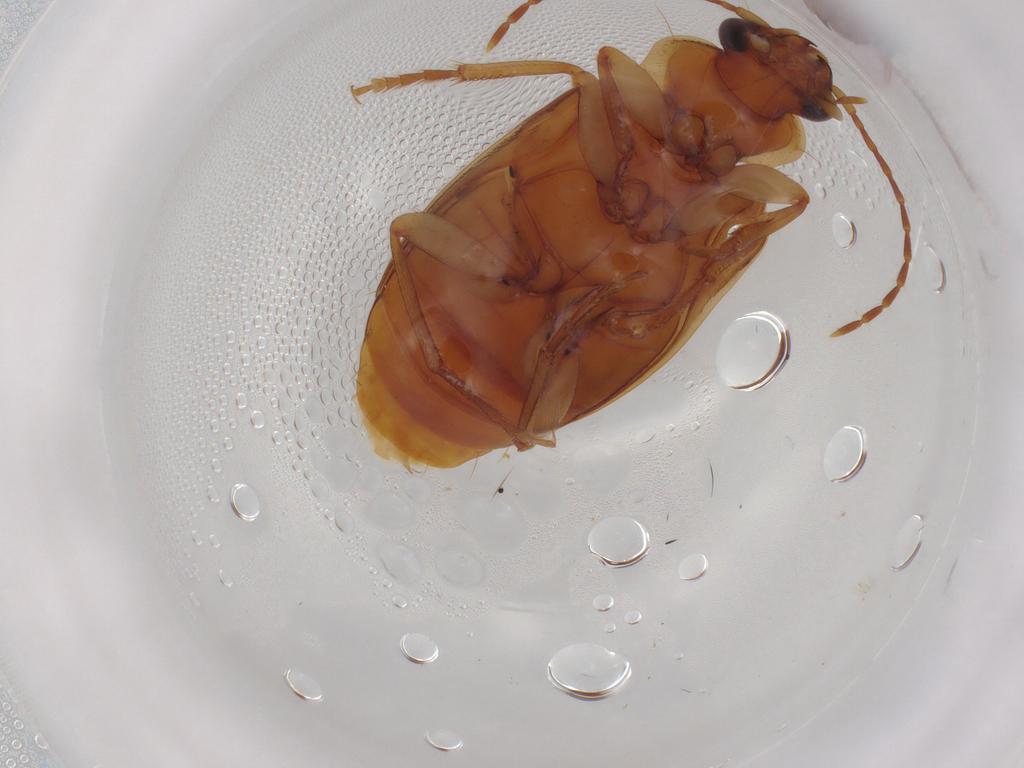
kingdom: Animalia
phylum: Arthropoda
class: Insecta
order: Coleoptera
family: Carabidae
